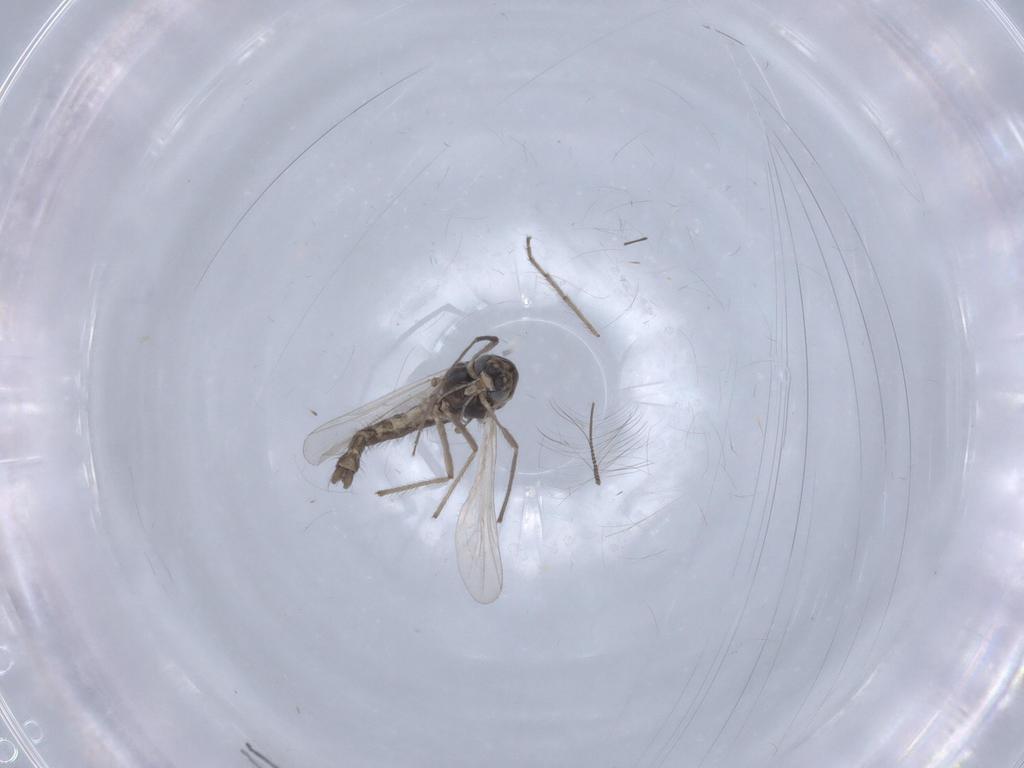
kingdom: Animalia
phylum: Arthropoda
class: Insecta
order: Diptera
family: Chironomidae
